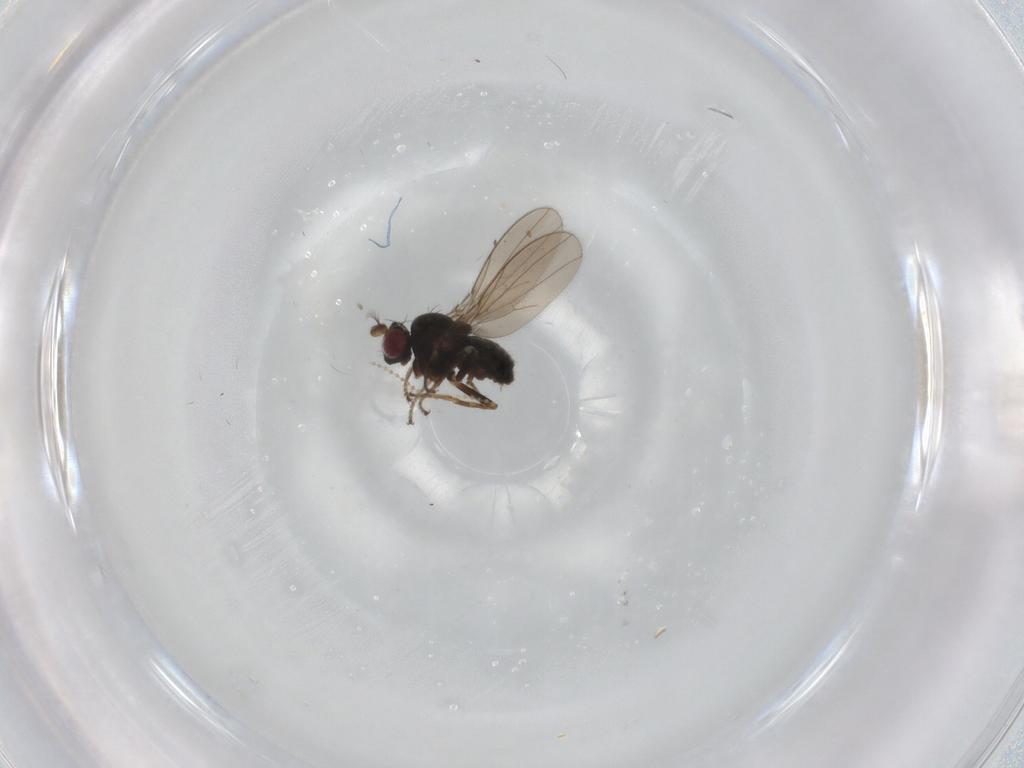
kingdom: Animalia
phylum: Arthropoda
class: Insecta
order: Diptera
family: Ephydridae
